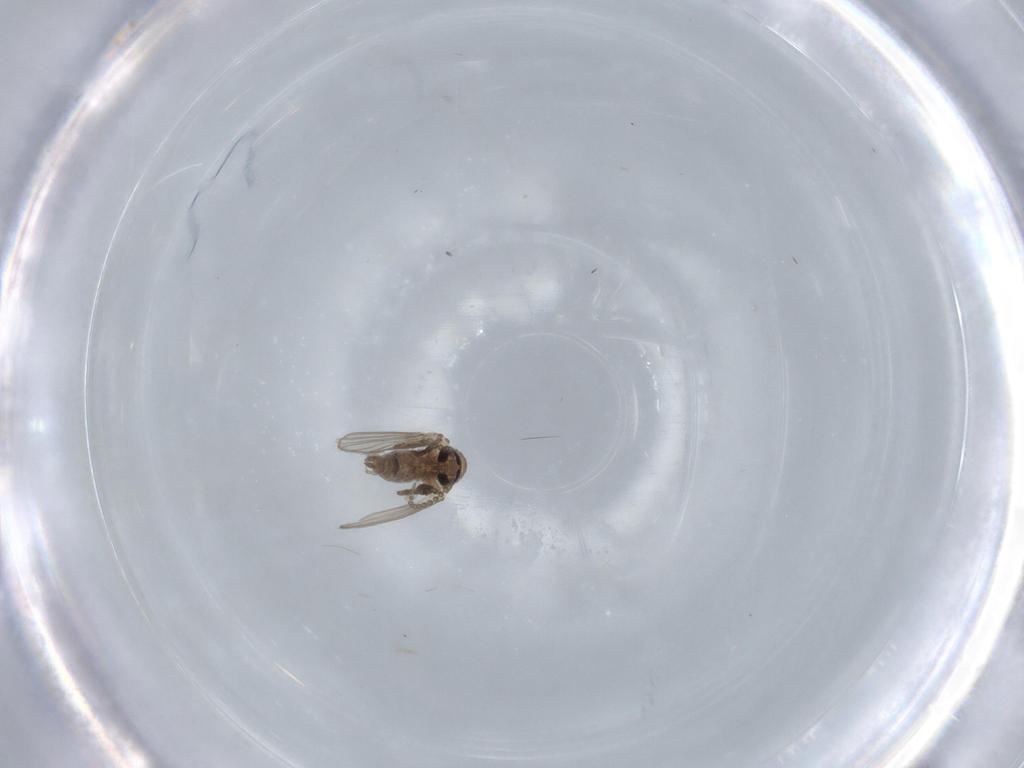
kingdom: Animalia
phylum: Arthropoda
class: Insecta
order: Diptera
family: Psychodidae
